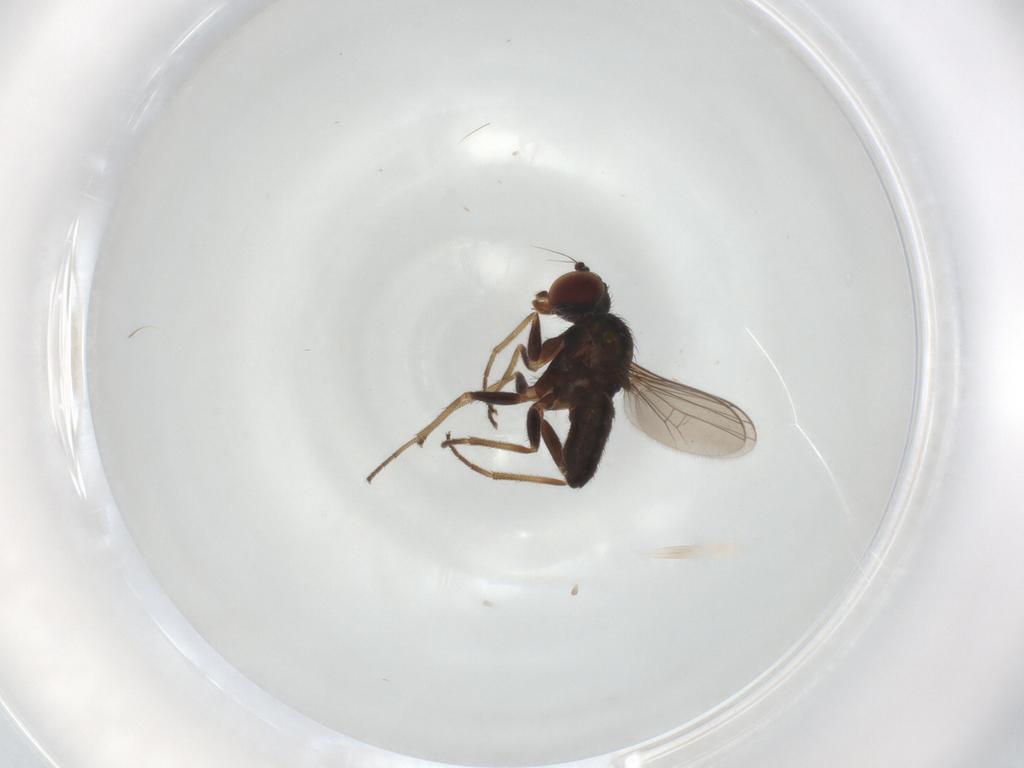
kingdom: Animalia
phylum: Arthropoda
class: Insecta
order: Diptera
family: Dolichopodidae
